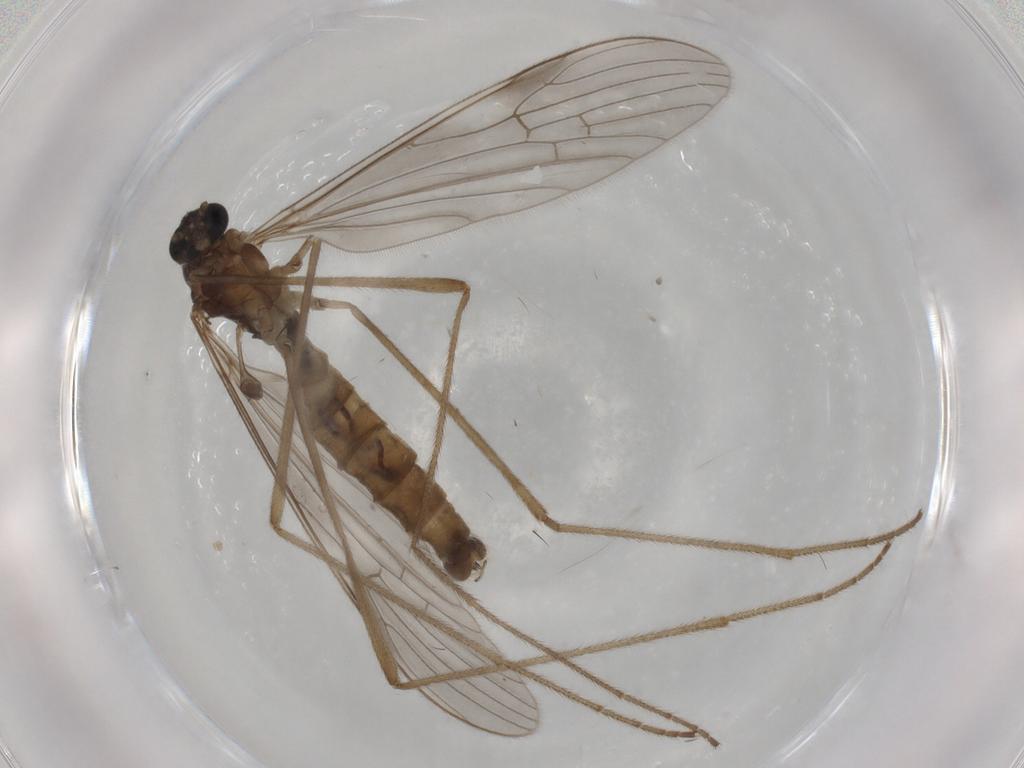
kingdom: Animalia
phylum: Arthropoda
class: Insecta
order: Diptera
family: Limoniidae
